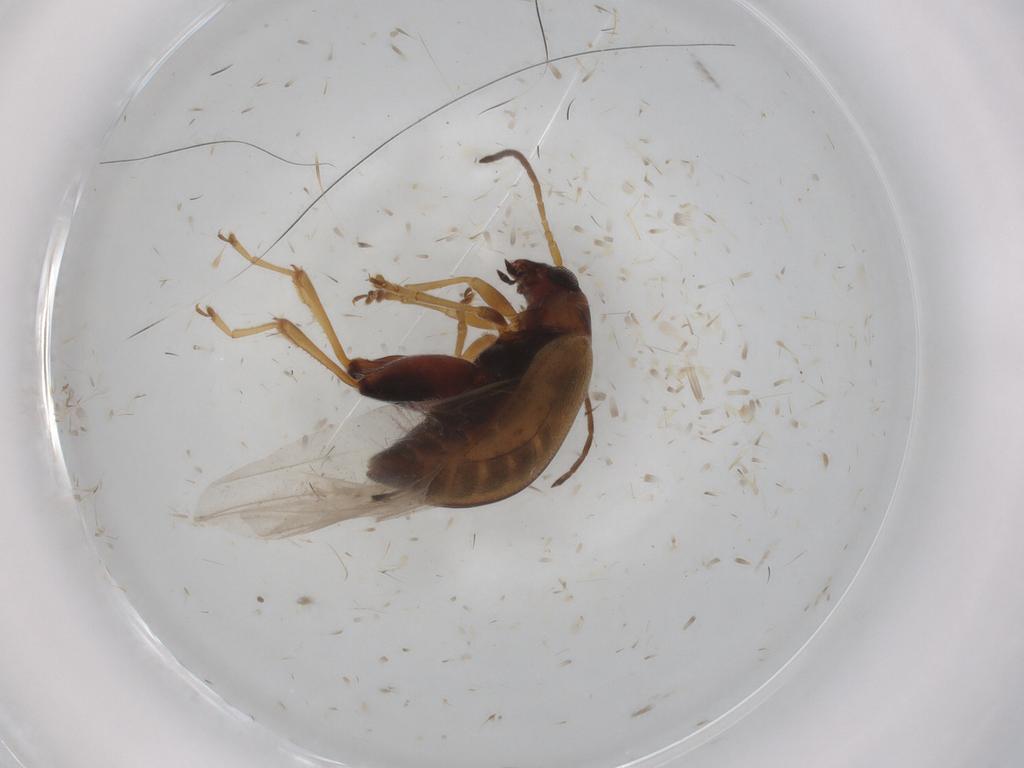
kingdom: Animalia
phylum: Arthropoda
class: Insecta
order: Coleoptera
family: Chrysomelidae
